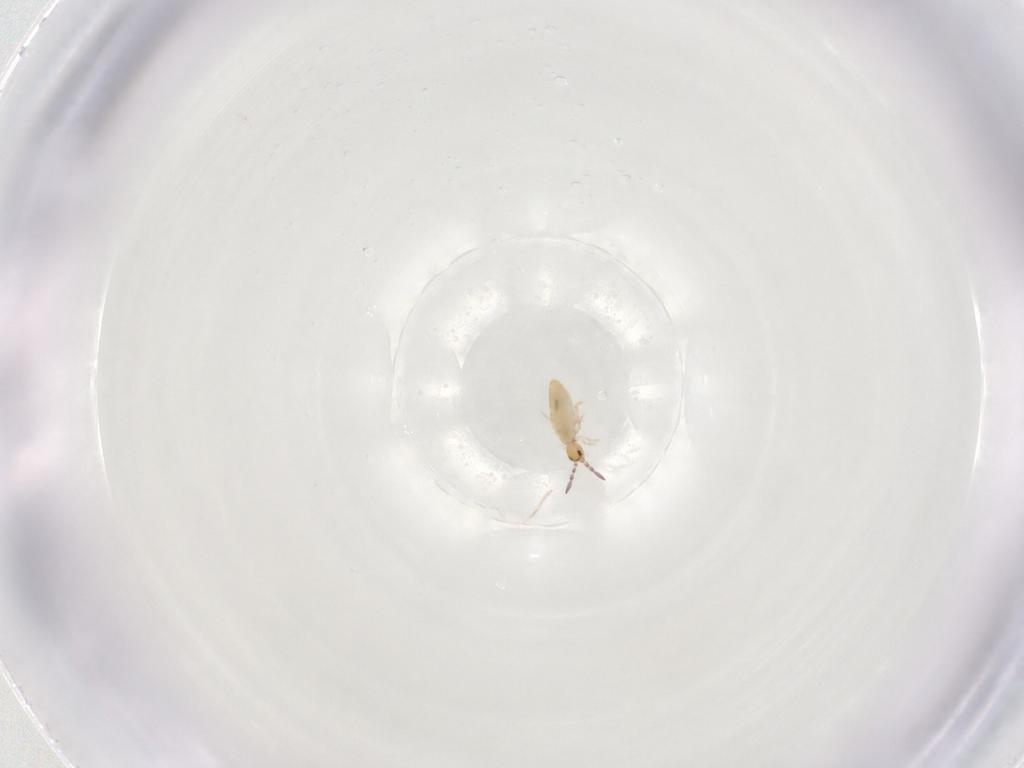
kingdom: Animalia
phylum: Arthropoda
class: Collembola
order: Entomobryomorpha
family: Entomobryidae
